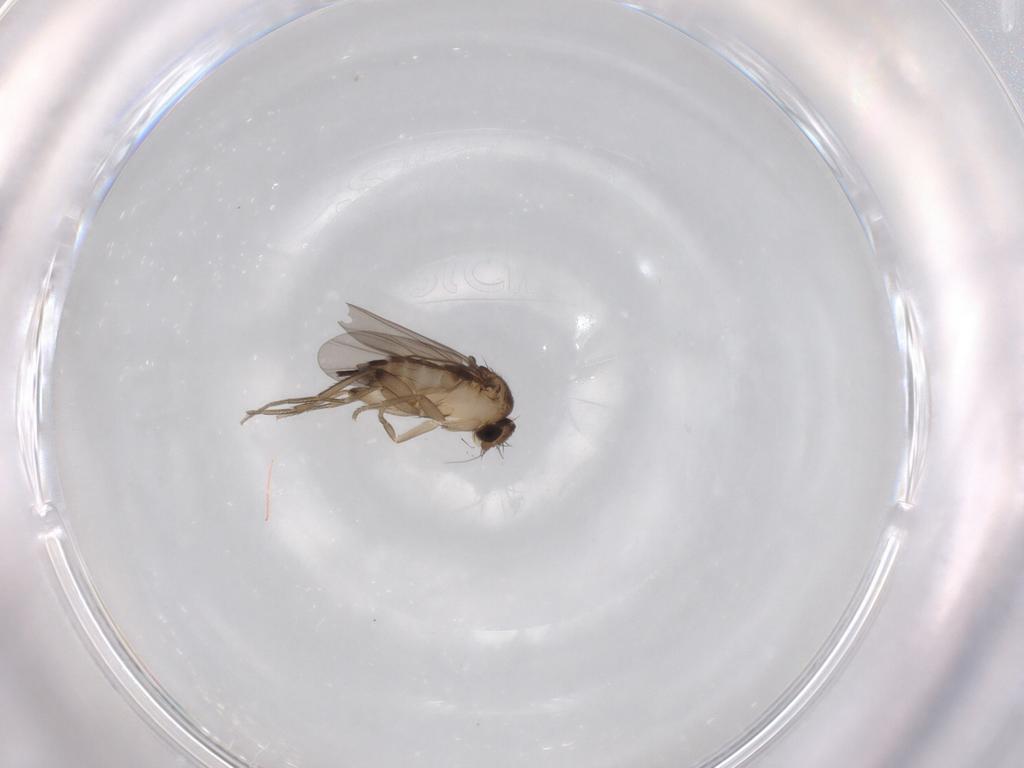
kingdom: Animalia
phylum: Arthropoda
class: Insecta
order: Diptera
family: Phoridae
